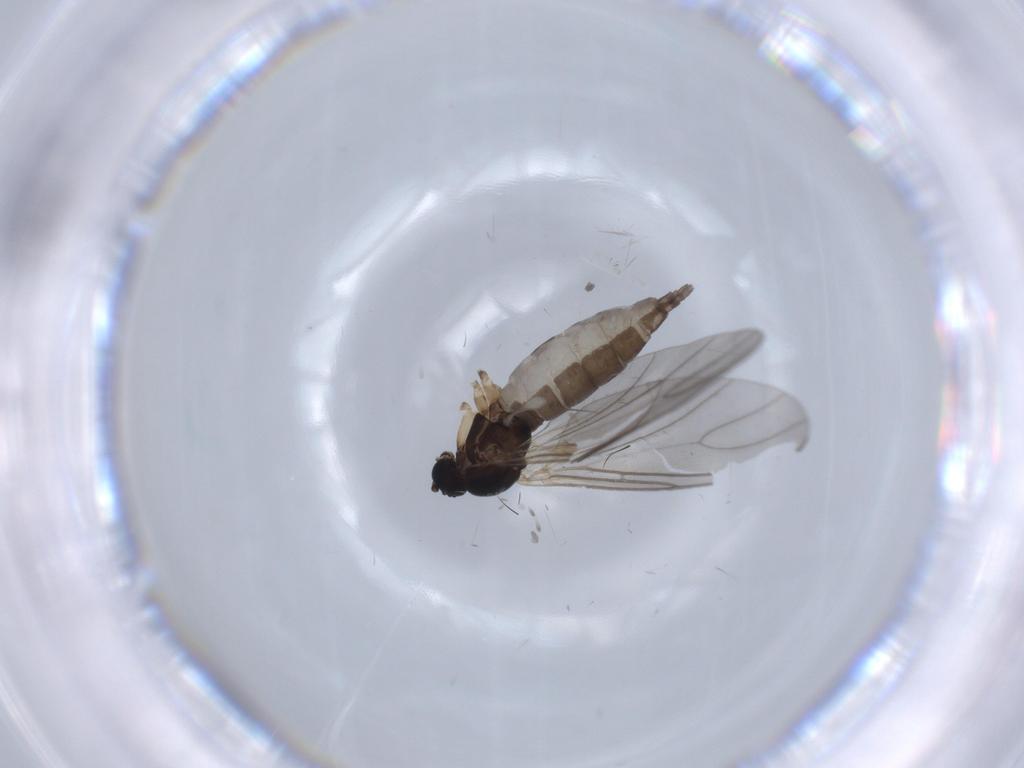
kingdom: Animalia
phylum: Arthropoda
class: Insecta
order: Diptera
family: Sciaridae
